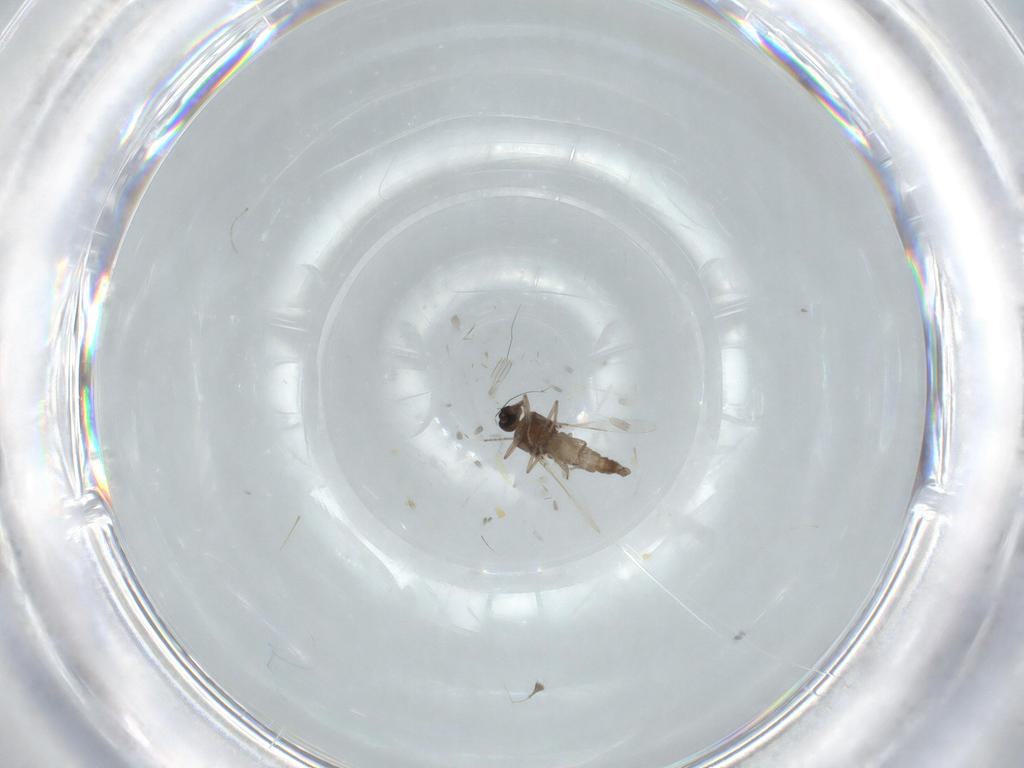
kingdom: Animalia
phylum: Arthropoda
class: Insecta
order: Diptera
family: Ceratopogonidae
